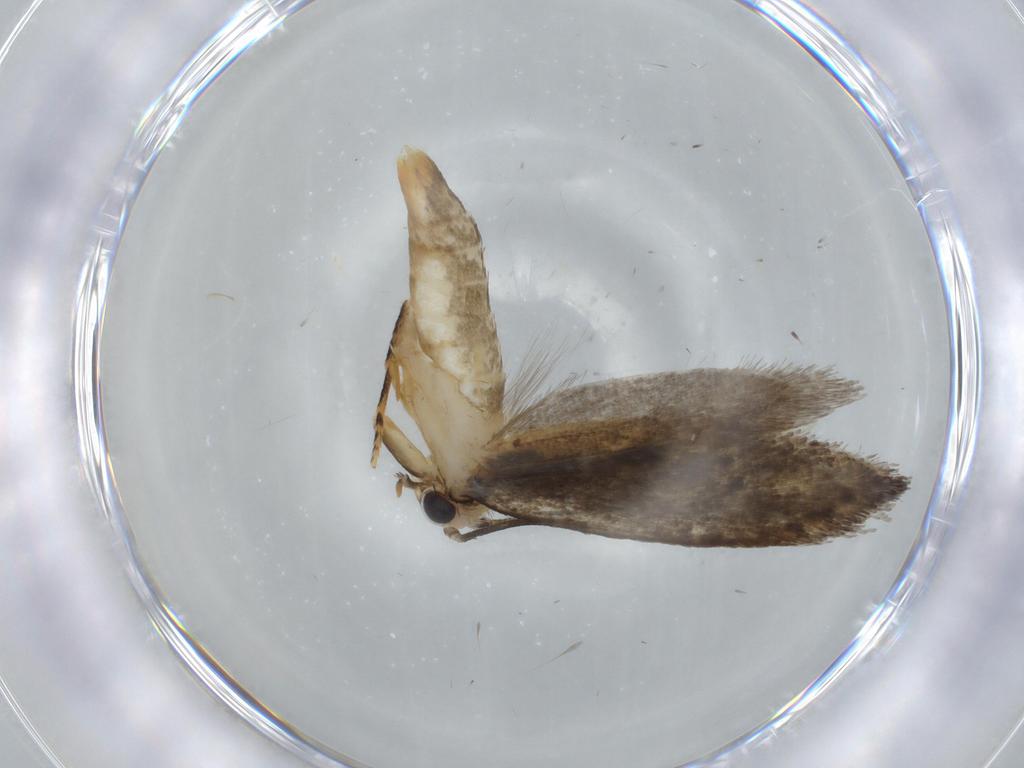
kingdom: Animalia
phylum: Arthropoda
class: Insecta
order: Lepidoptera
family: Tineidae
